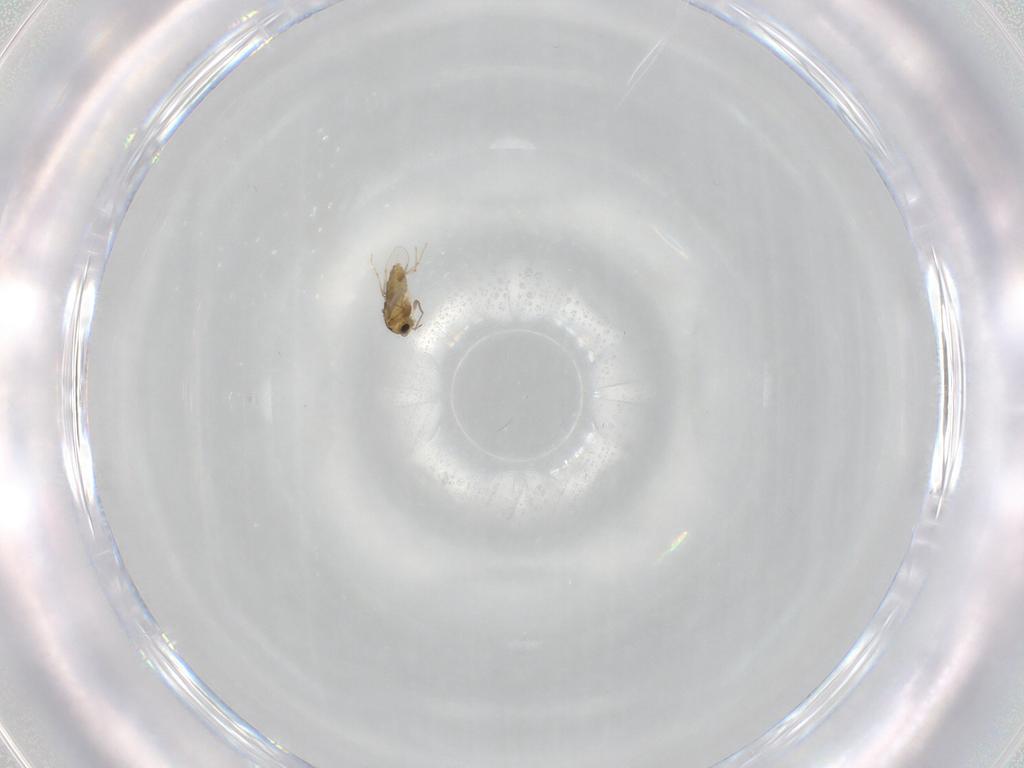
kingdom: Animalia
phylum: Arthropoda
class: Insecta
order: Diptera
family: Chironomidae
